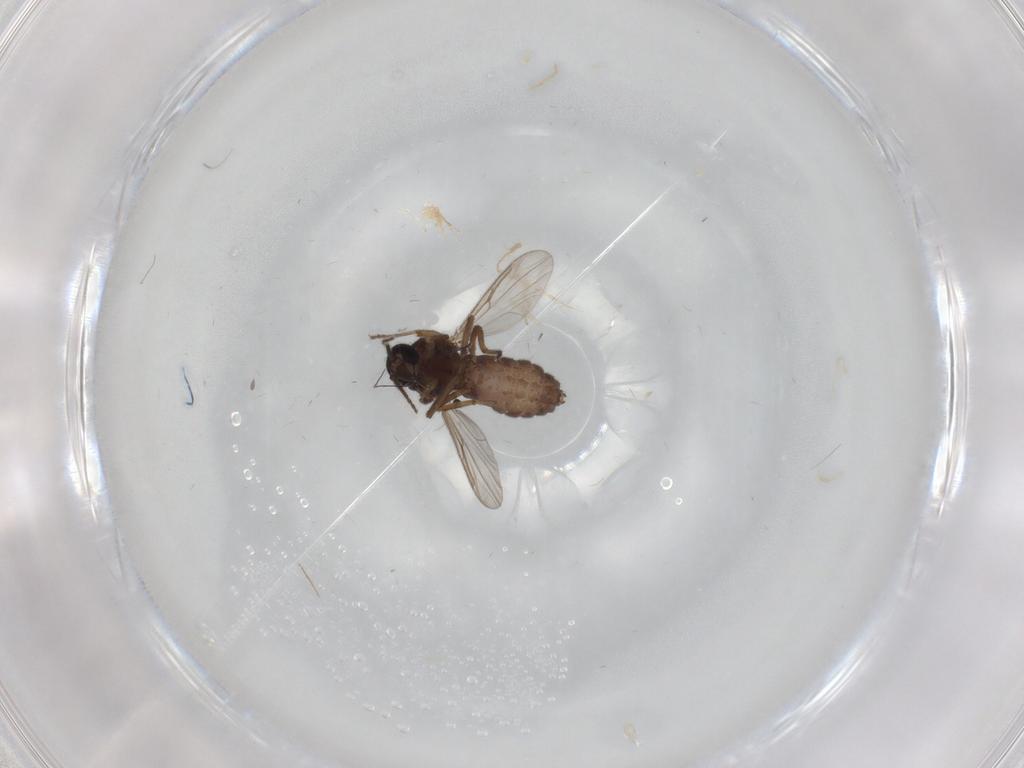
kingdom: Animalia
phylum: Arthropoda
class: Insecta
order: Diptera
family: Ceratopogonidae
